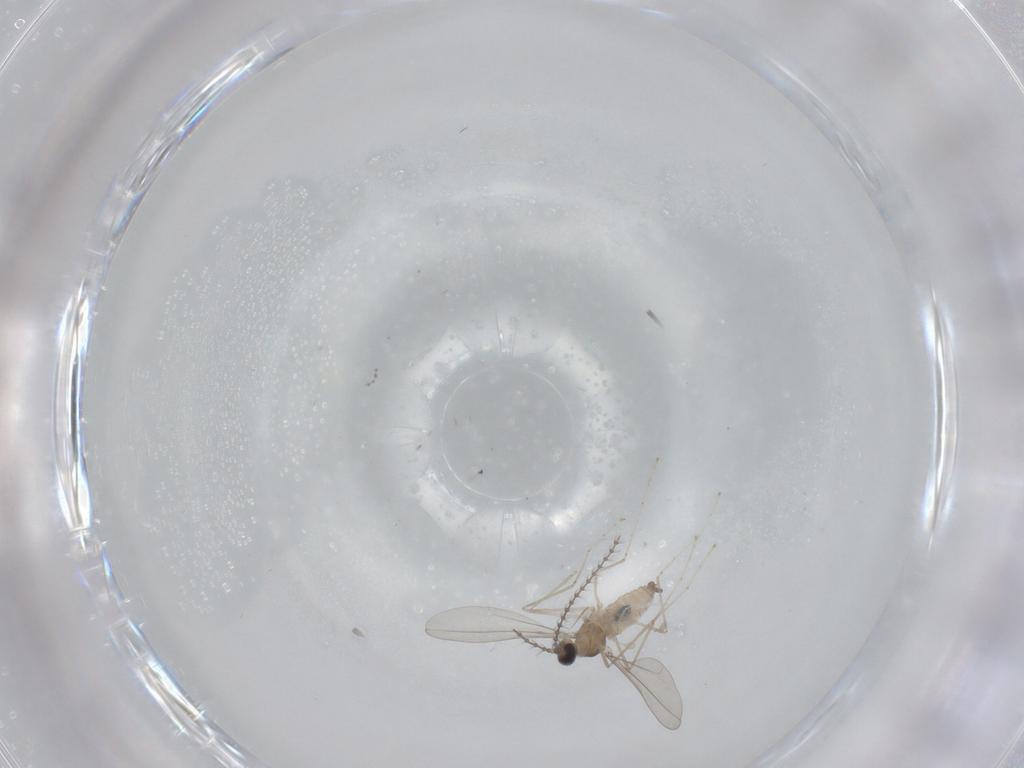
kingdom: Animalia
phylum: Arthropoda
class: Insecta
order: Diptera
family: Cecidomyiidae
